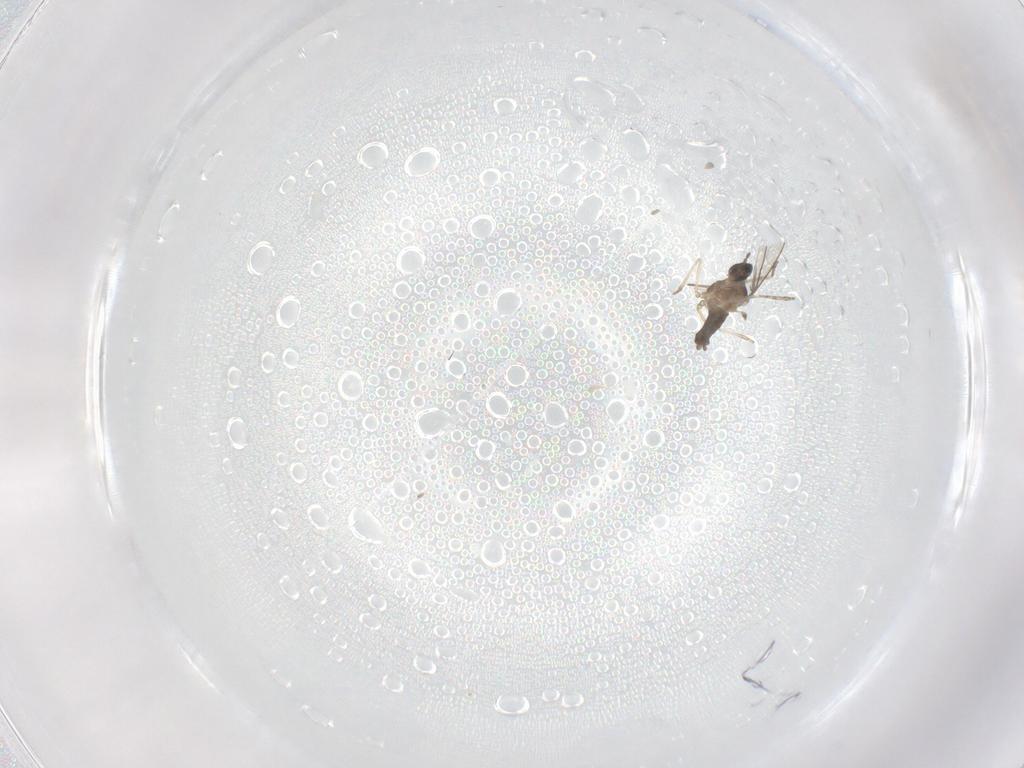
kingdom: Animalia
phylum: Arthropoda
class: Insecta
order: Diptera
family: Cecidomyiidae
